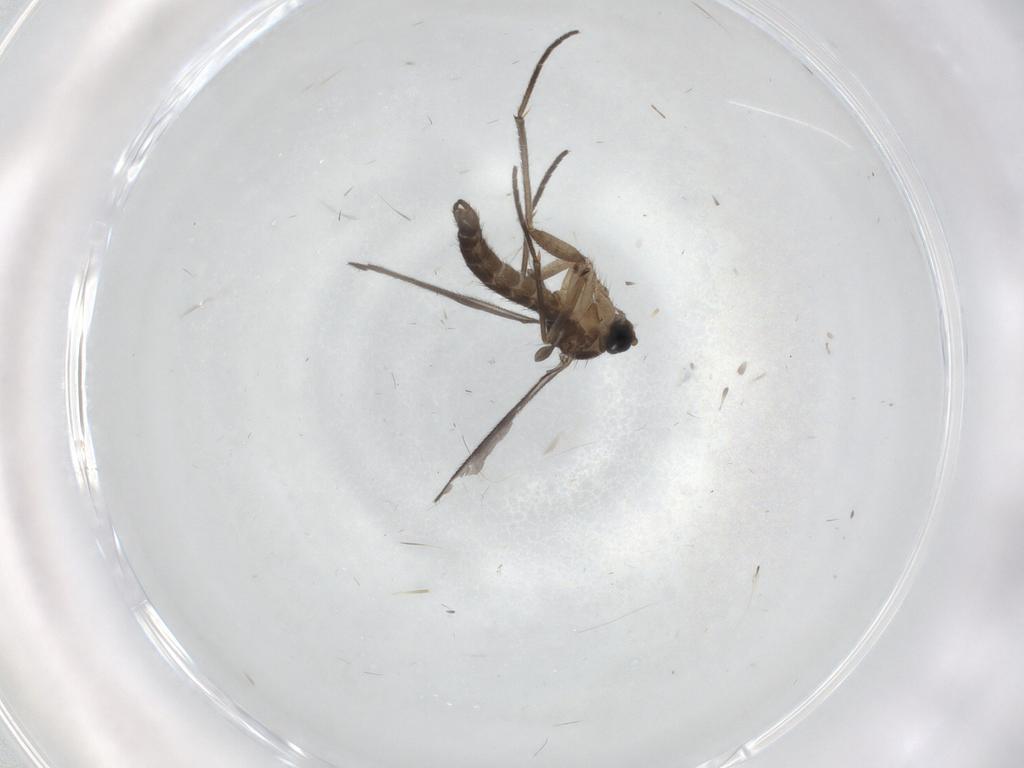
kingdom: Animalia
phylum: Arthropoda
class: Insecta
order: Diptera
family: Sciaridae
